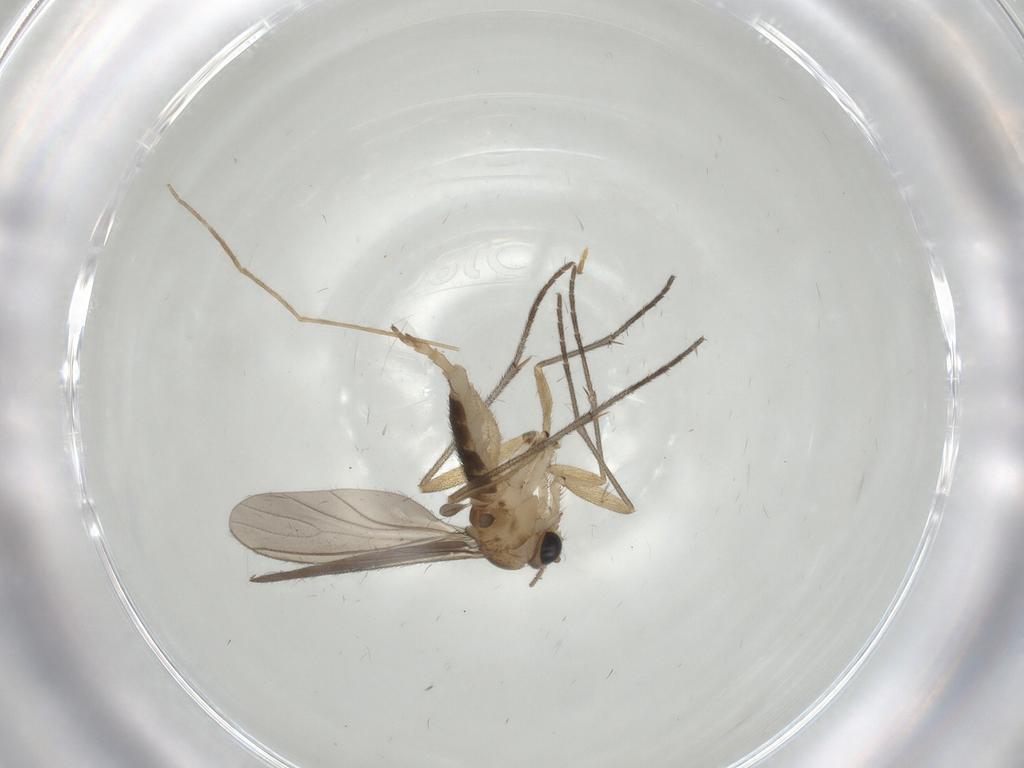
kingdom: Animalia
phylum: Arthropoda
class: Insecta
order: Diptera
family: Sciaridae
